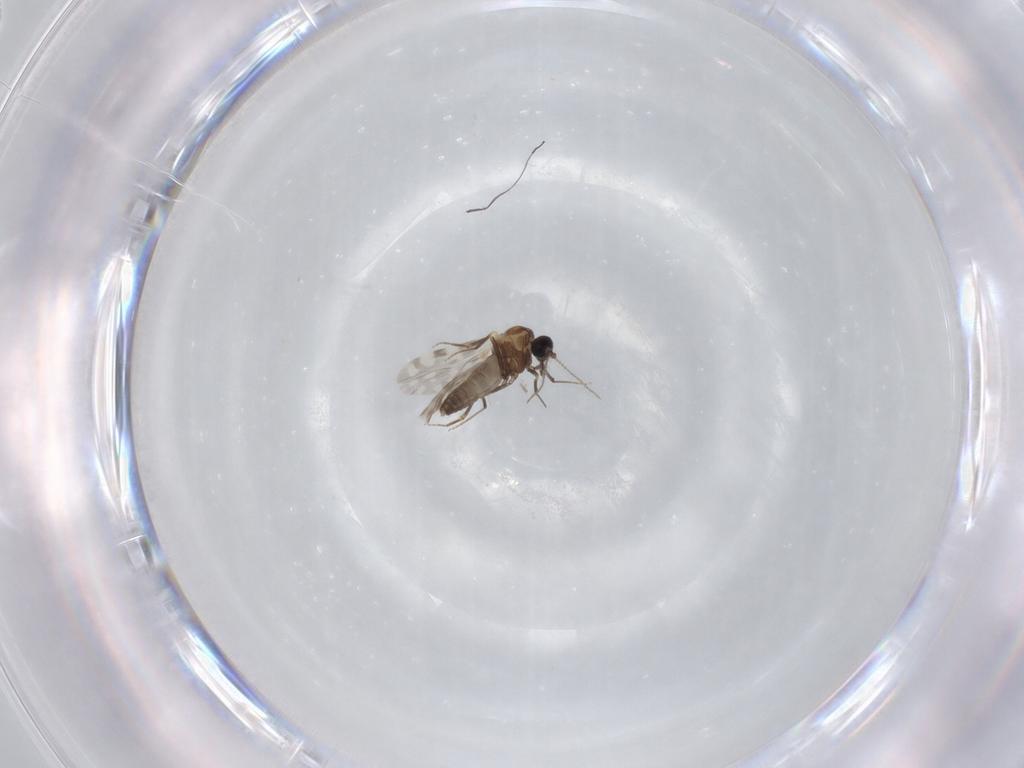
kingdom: Animalia
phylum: Arthropoda
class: Insecta
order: Diptera
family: Ceratopogonidae
